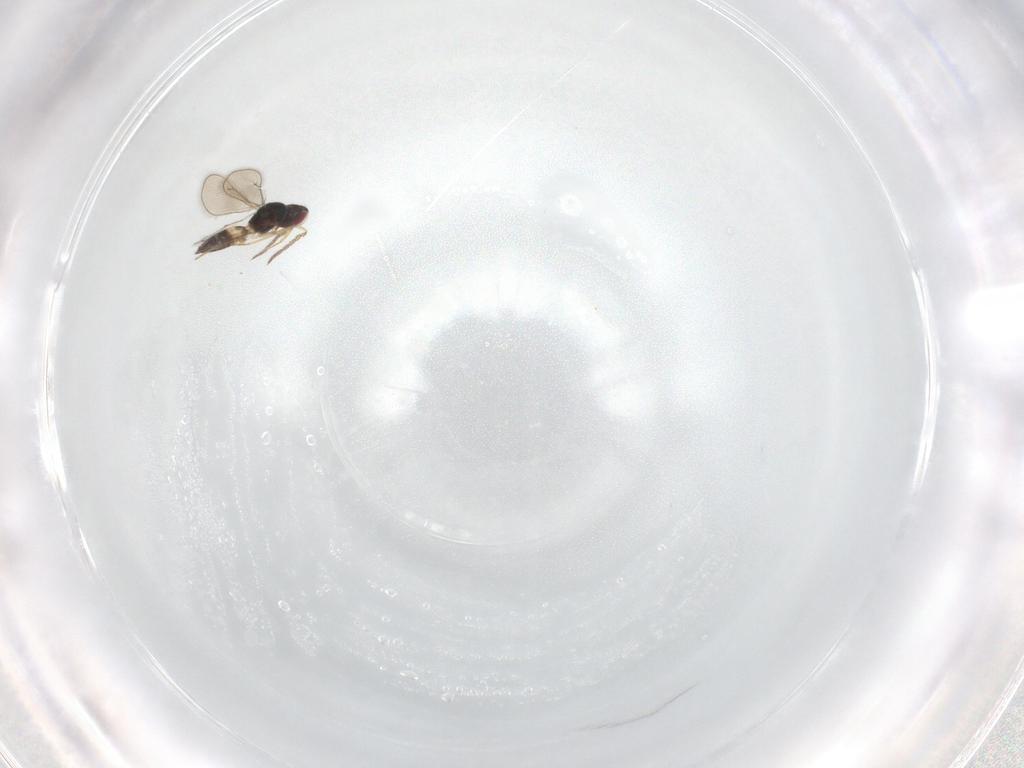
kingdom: Animalia
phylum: Arthropoda
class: Insecta
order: Hymenoptera
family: Eulophidae
